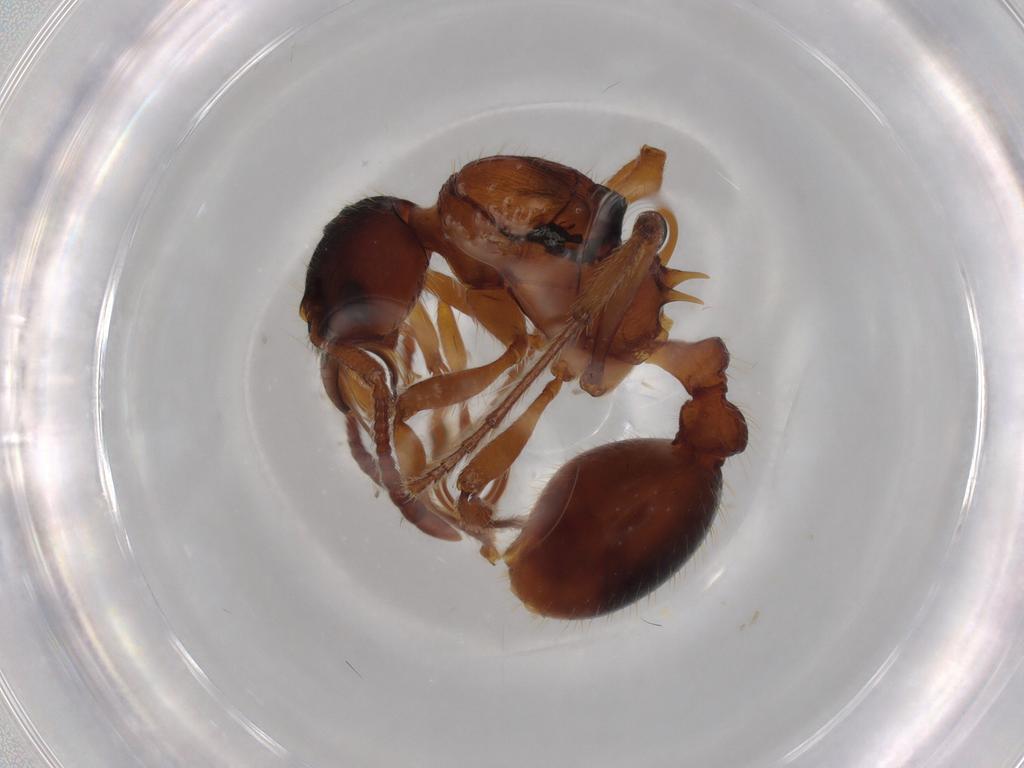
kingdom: Animalia
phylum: Arthropoda
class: Insecta
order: Hymenoptera
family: Formicidae
